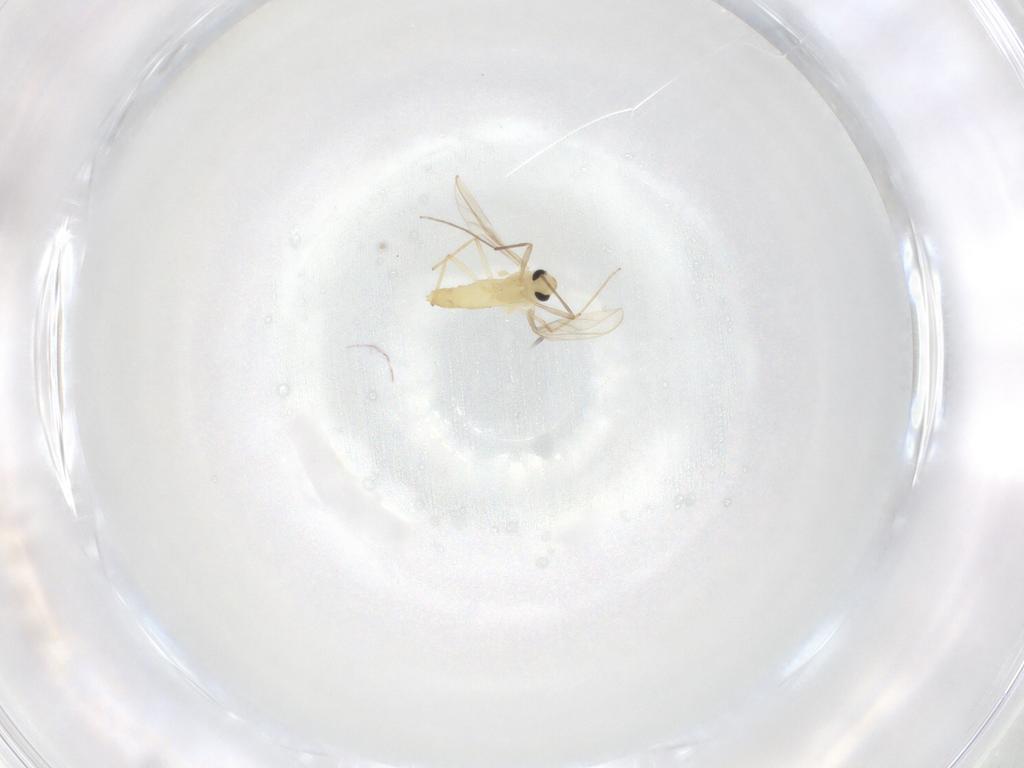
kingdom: Animalia
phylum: Arthropoda
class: Insecta
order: Diptera
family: Chironomidae
